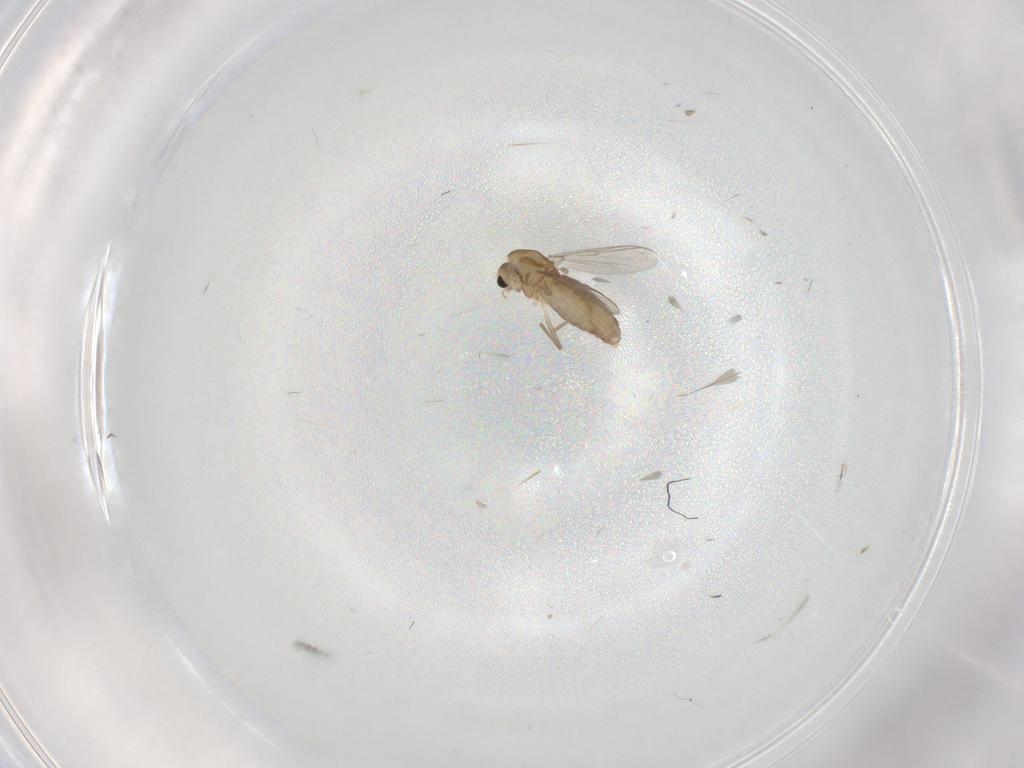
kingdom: Animalia
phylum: Arthropoda
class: Insecta
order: Diptera
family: Chironomidae
